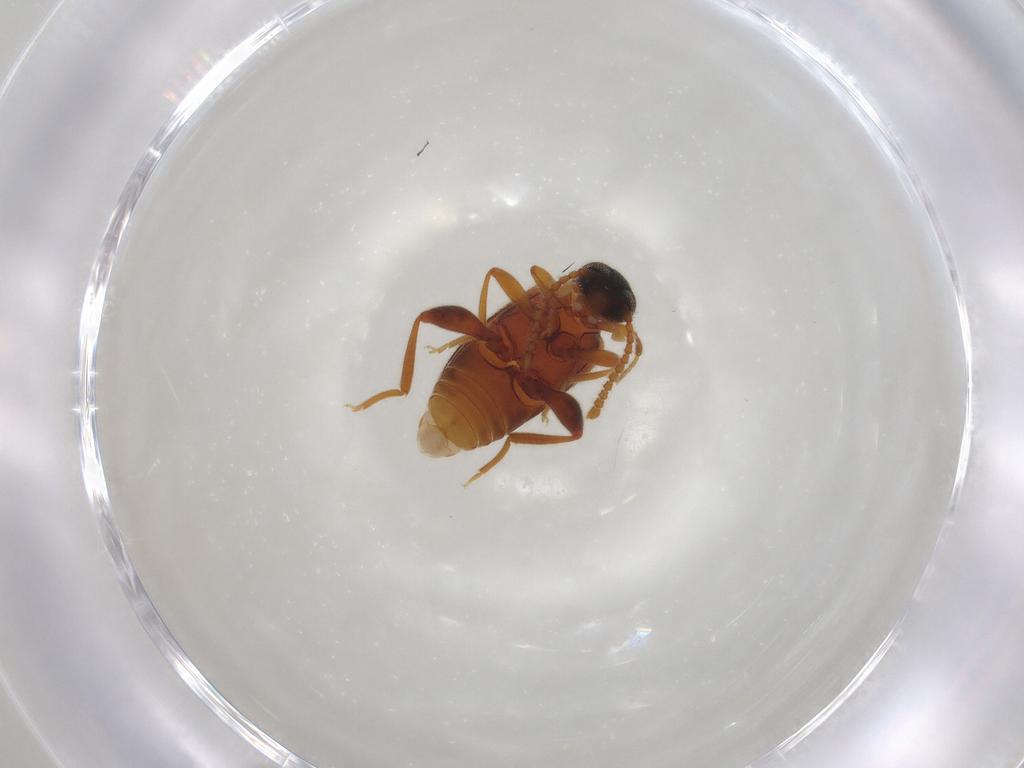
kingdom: Animalia
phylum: Arthropoda
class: Insecta
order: Coleoptera
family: Aderidae
